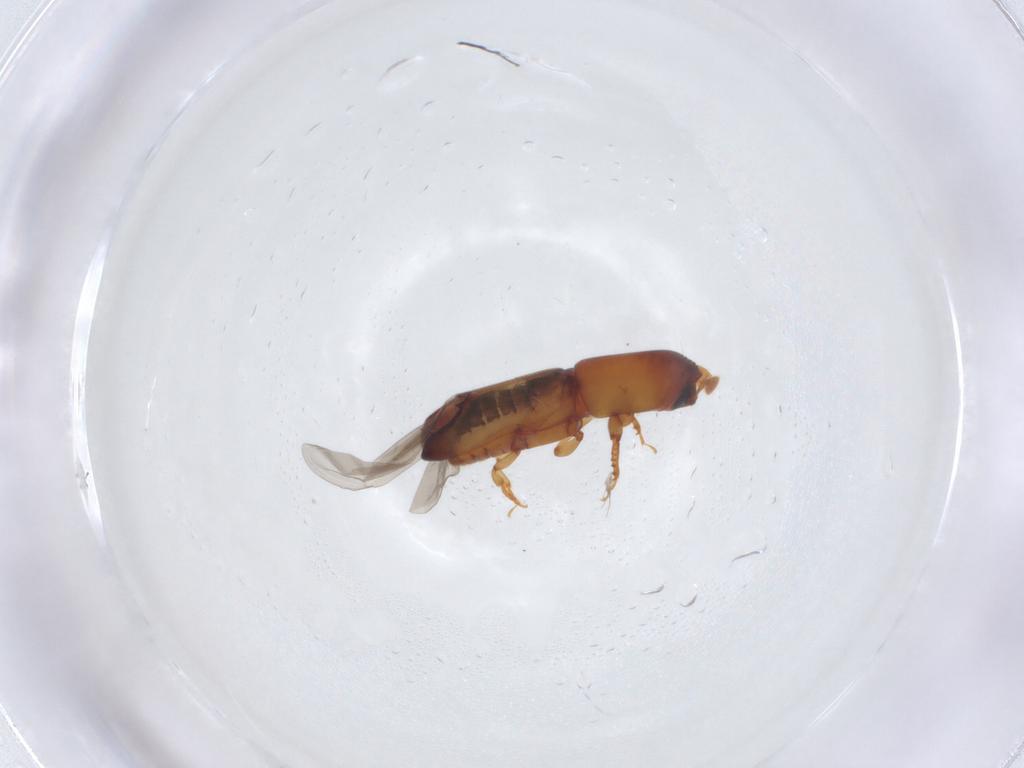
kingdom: Animalia
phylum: Arthropoda
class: Insecta
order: Coleoptera
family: Curculionidae
